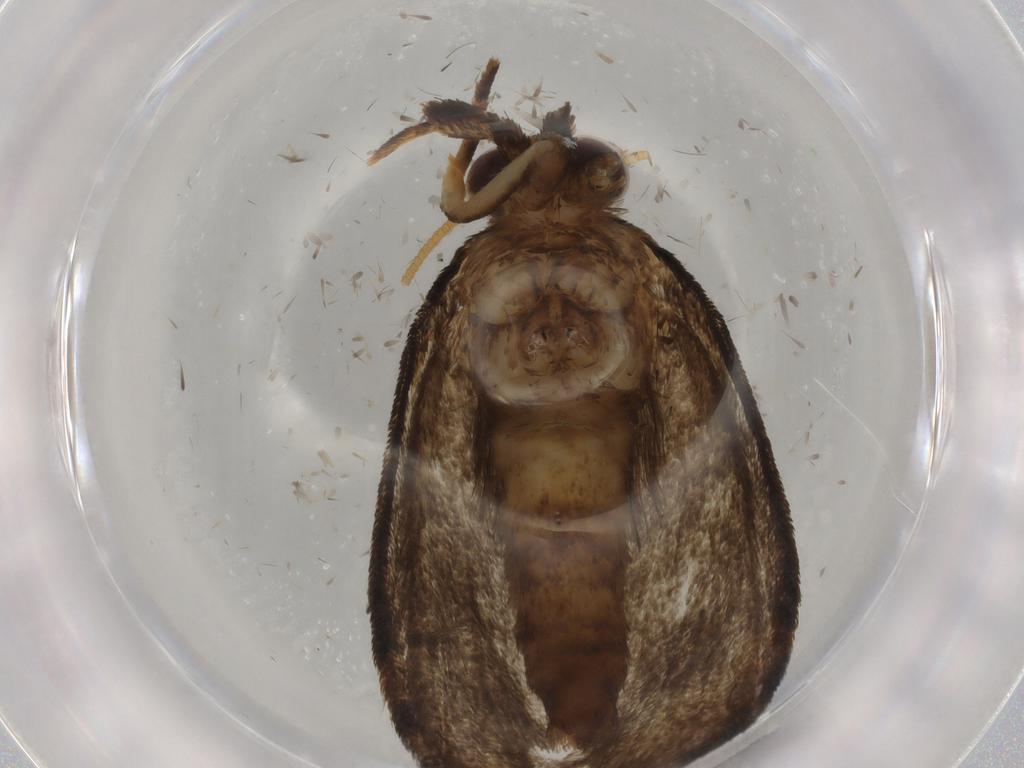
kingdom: Animalia
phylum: Arthropoda
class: Insecta
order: Lepidoptera
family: Tineidae
